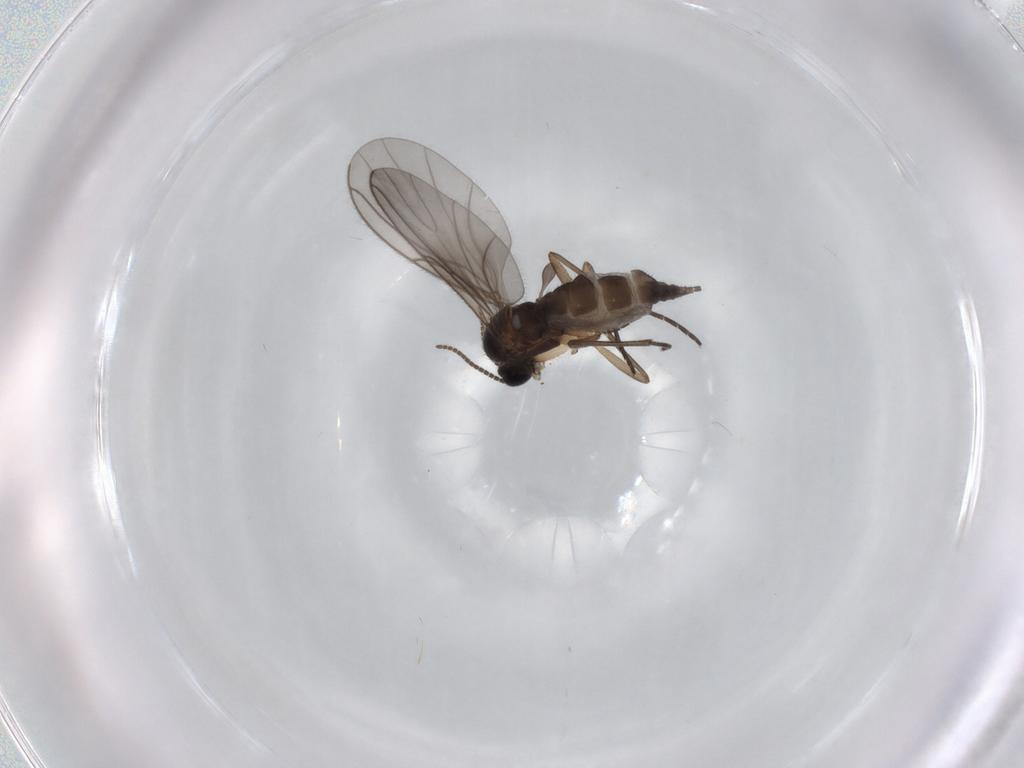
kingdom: Animalia
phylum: Arthropoda
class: Insecta
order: Diptera
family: Sciaridae
